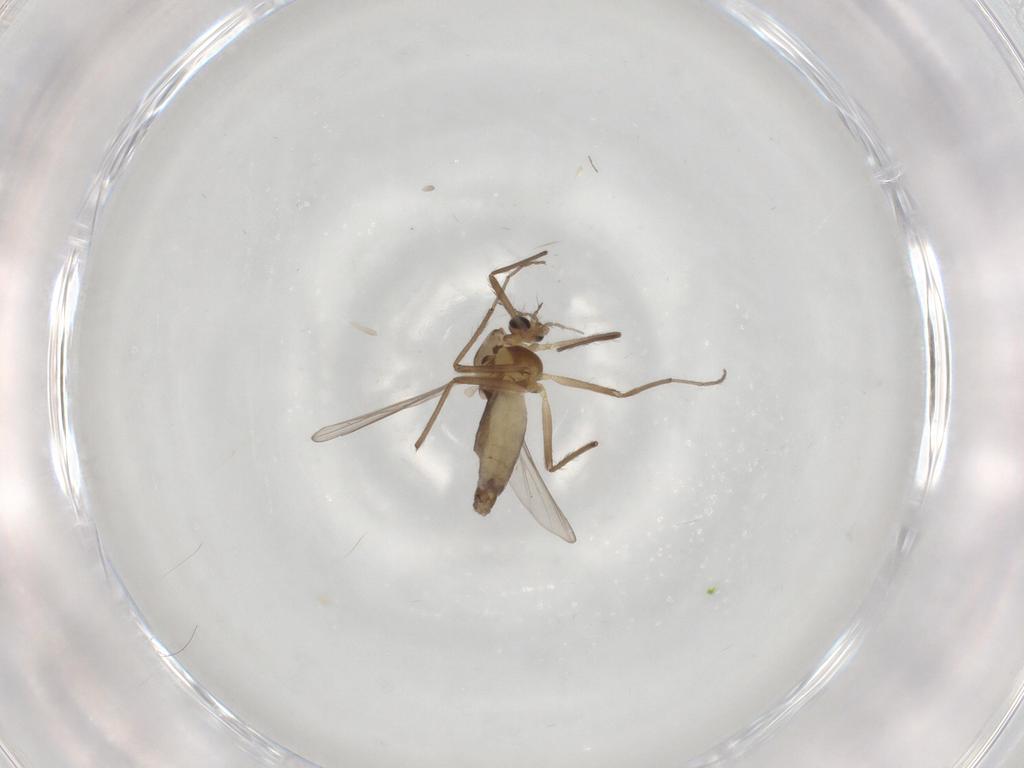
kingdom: Animalia
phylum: Arthropoda
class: Insecta
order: Diptera
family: Chironomidae
